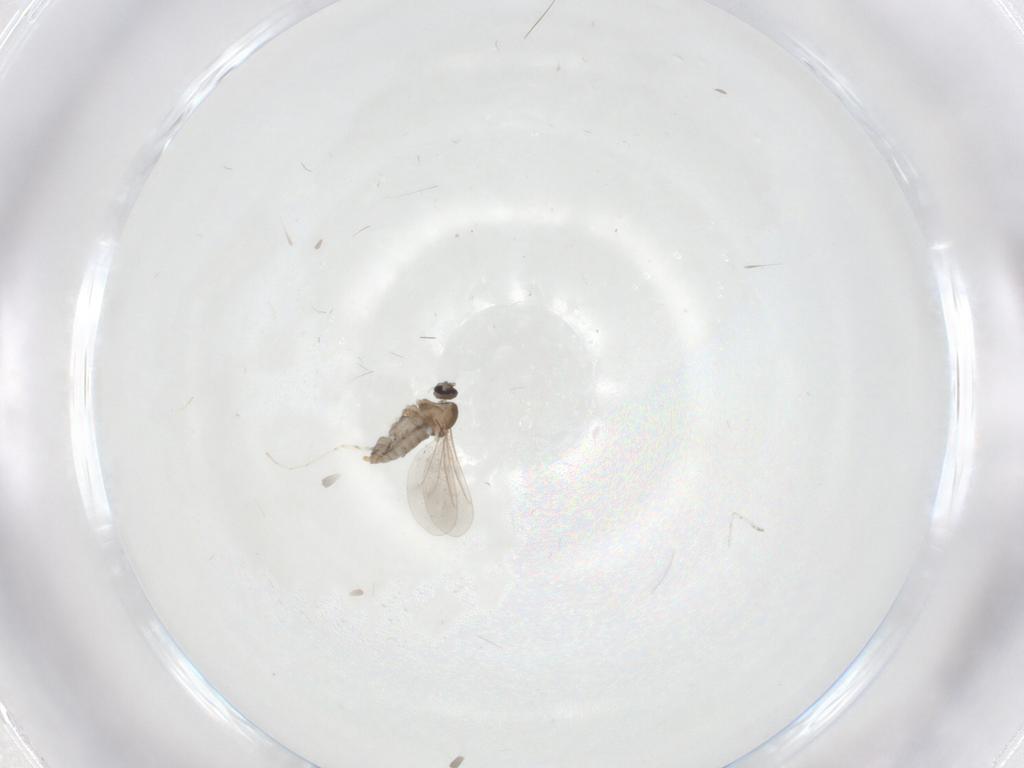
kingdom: Animalia
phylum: Arthropoda
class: Insecta
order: Diptera
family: Cecidomyiidae
